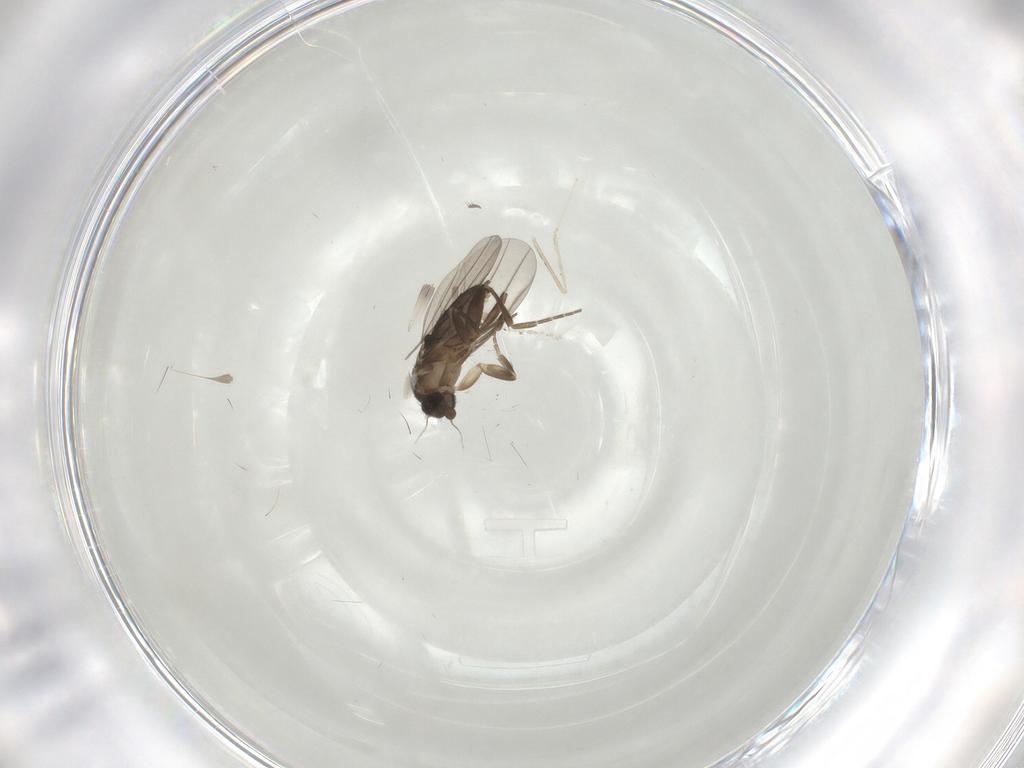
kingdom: Animalia
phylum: Arthropoda
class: Insecta
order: Diptera
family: Chironomidae
